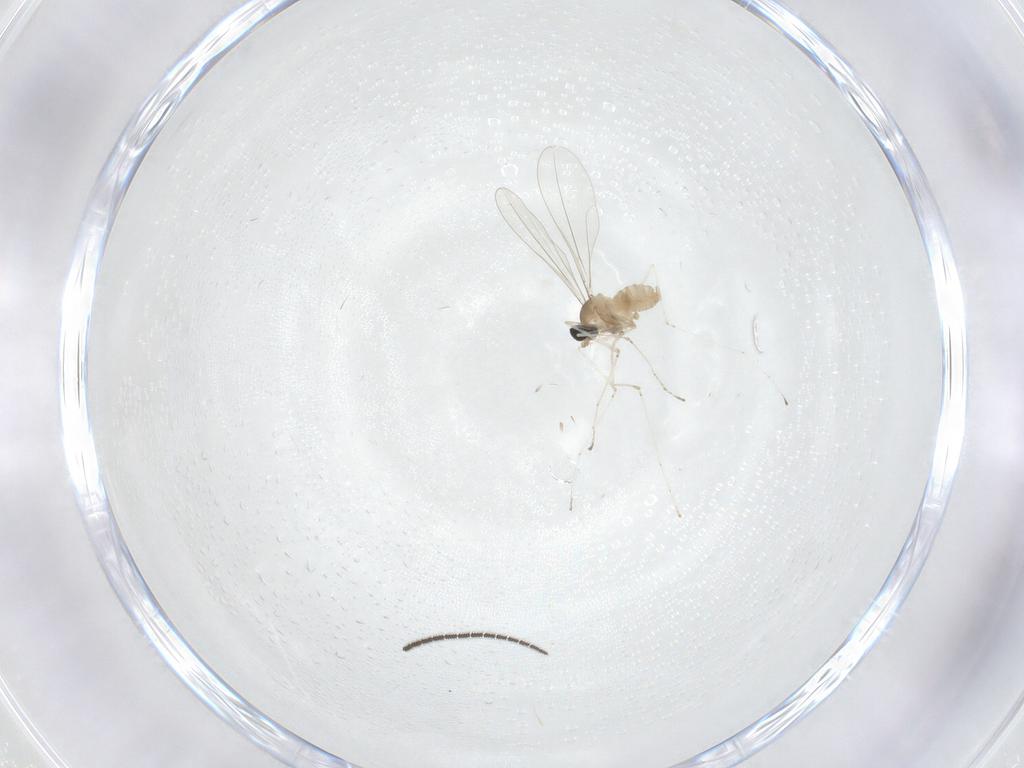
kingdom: Animalia
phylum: Arthropoda
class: Insecta
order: Diptera
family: Sciaridae
